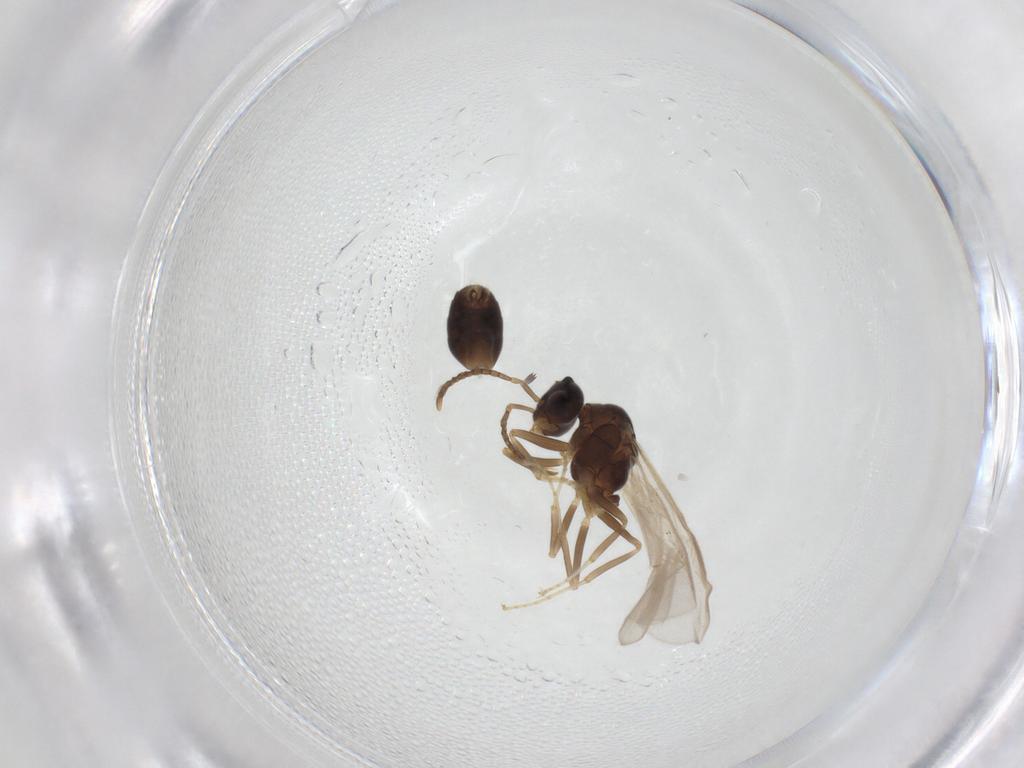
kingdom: Animalia
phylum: Arthropoda
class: Insecta
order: Hymenoptera
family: Formicidae
